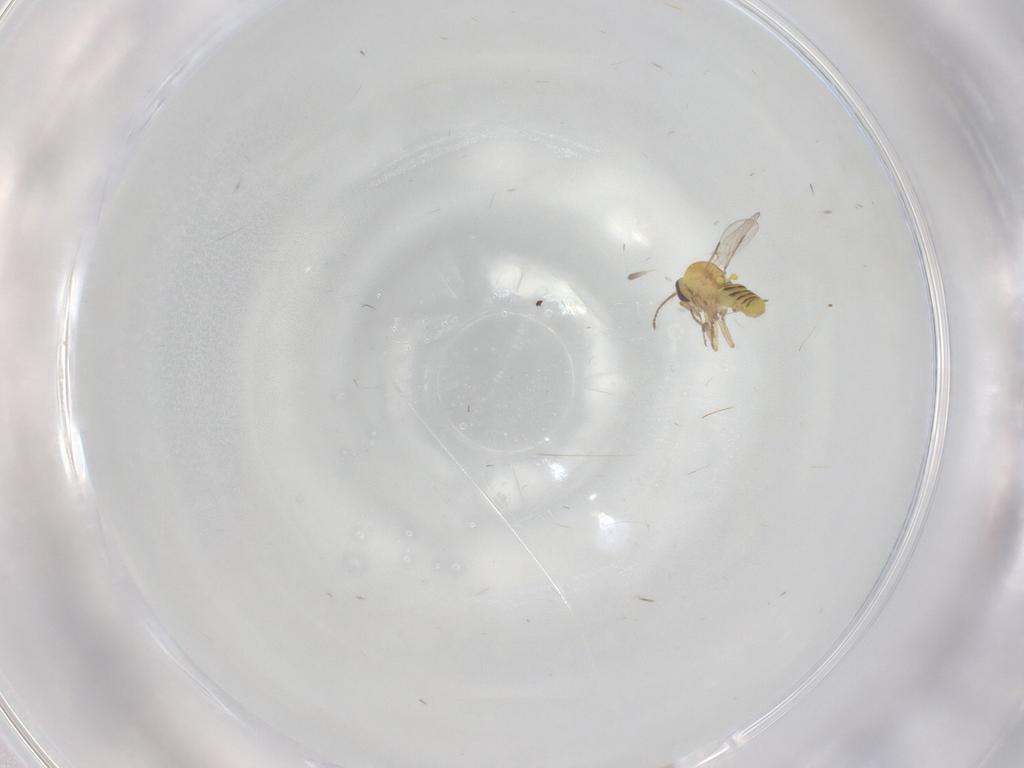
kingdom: Animalia
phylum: Arthropoda
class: Insecta
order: Diptera
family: Ceratopogonidae
